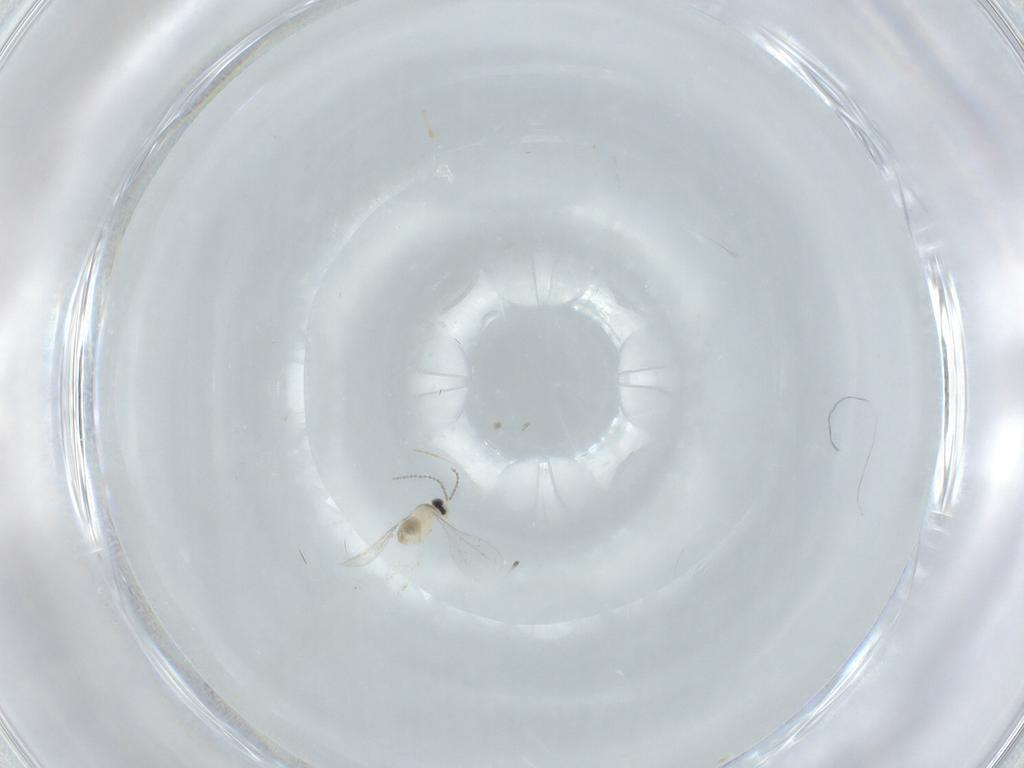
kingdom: Animalia
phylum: Arthropoda
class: Insecta
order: Diptera
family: Cecidomyiidae
